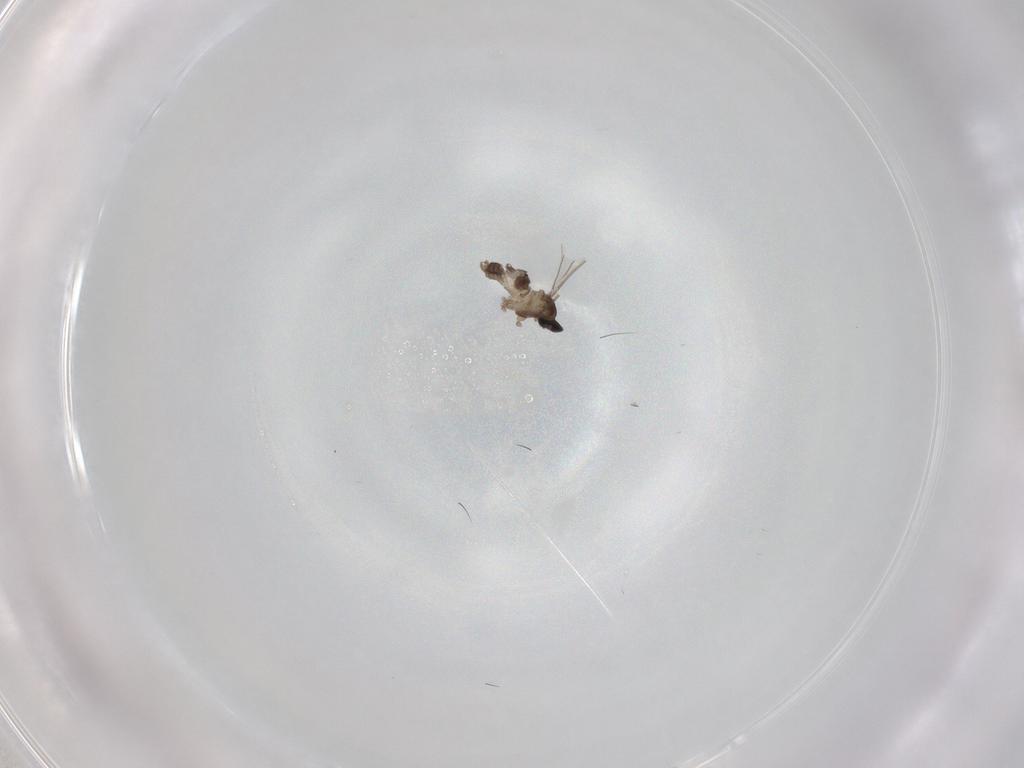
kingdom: Animalia
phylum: Arthropoda
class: Insecta
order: Diptera
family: Cecidomyiidae
